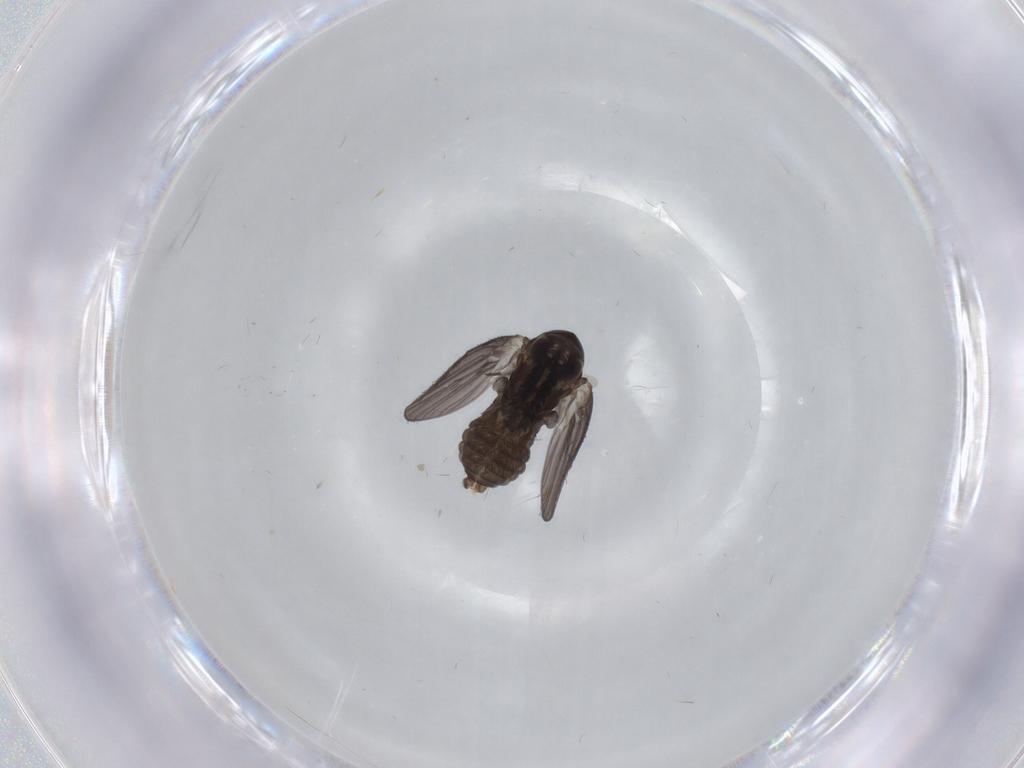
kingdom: Animalia
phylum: Arthropoda
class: Insecta
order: Diptera
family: Psychodidae
